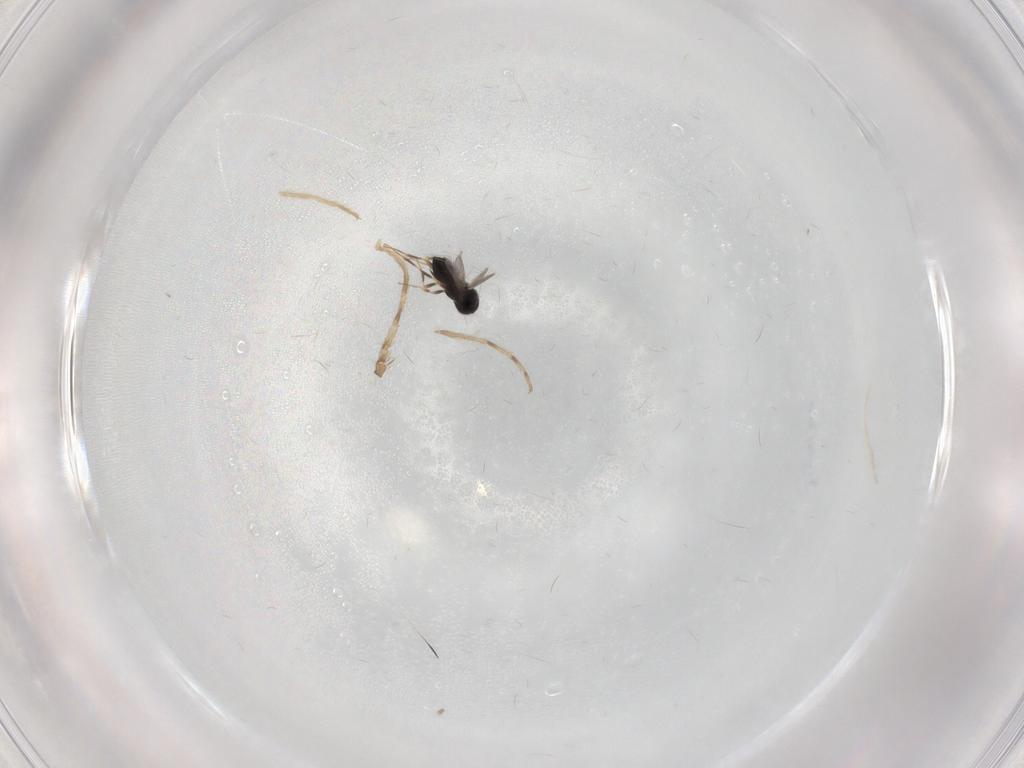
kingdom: Animalia
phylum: Arthropoda
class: Insecta
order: Hymenoptera
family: Scelionidae
